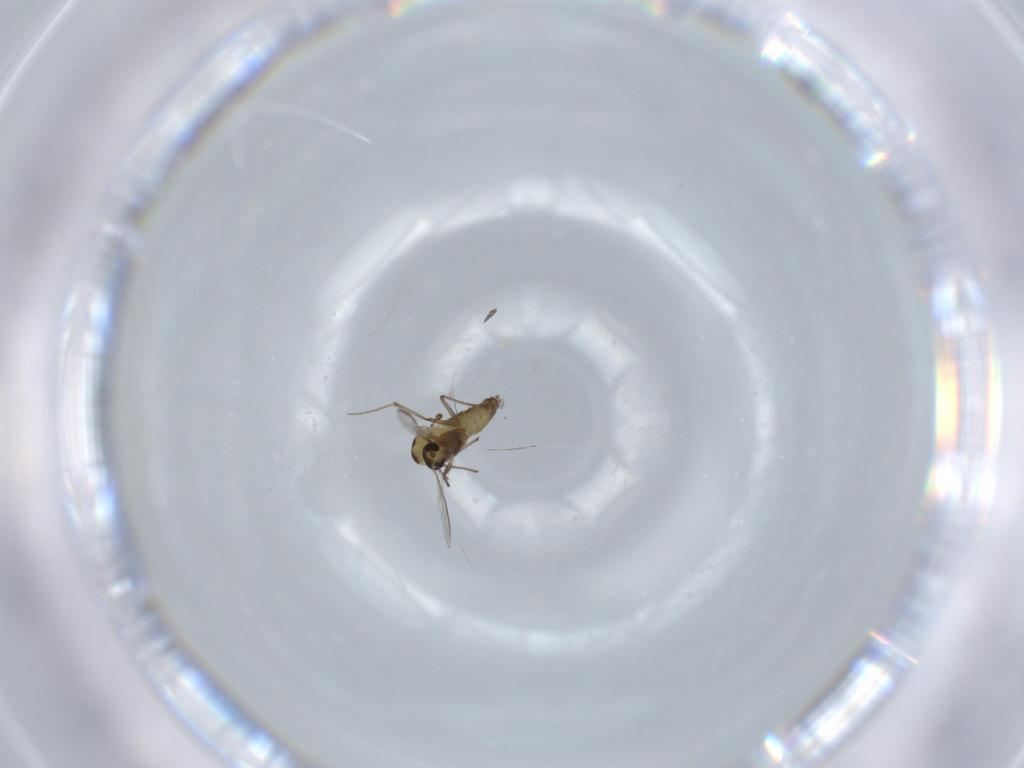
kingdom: Animalia
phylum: Arthropoda
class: Insecta
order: Diptera
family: Chironomidae
